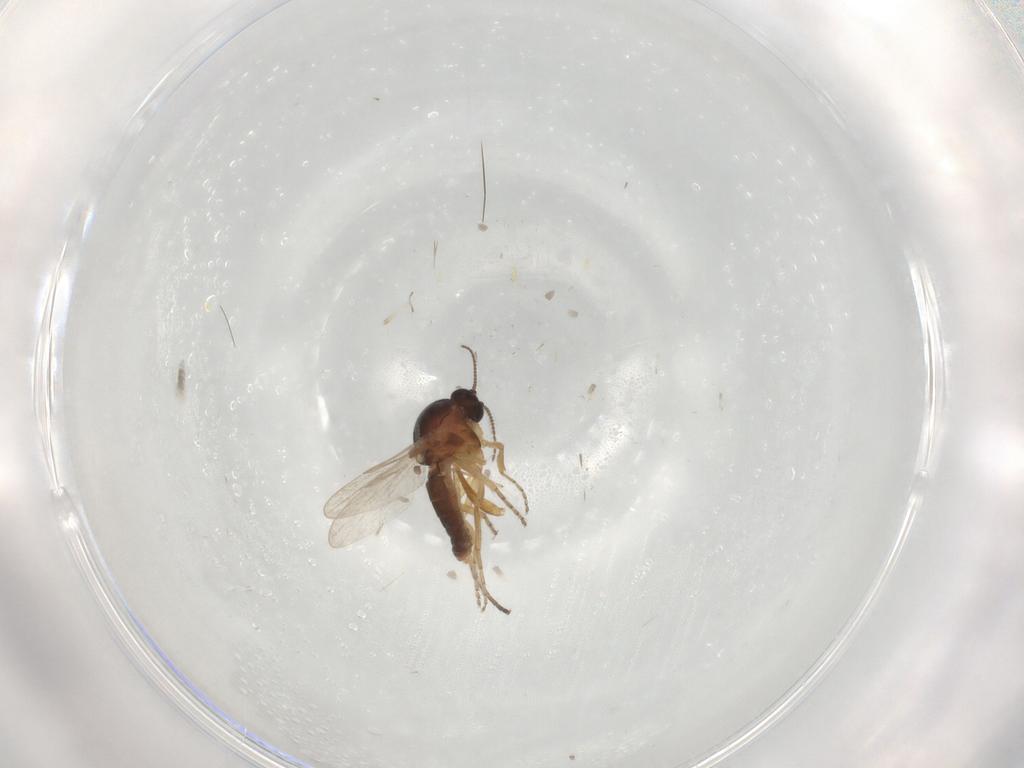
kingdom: Animalia
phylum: Arthropoda
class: Insecta
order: Diptera
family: Ceratopogonidae
